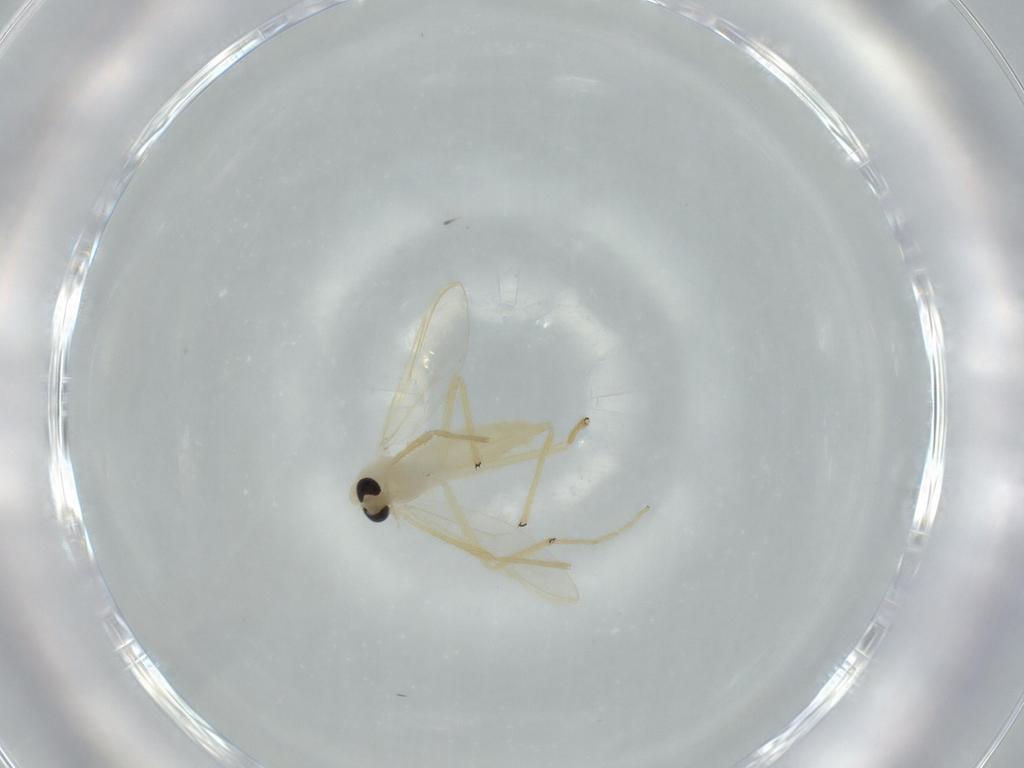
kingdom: Animalia
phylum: Arthropoda
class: Insecta
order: Diptera
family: Chironomidae
